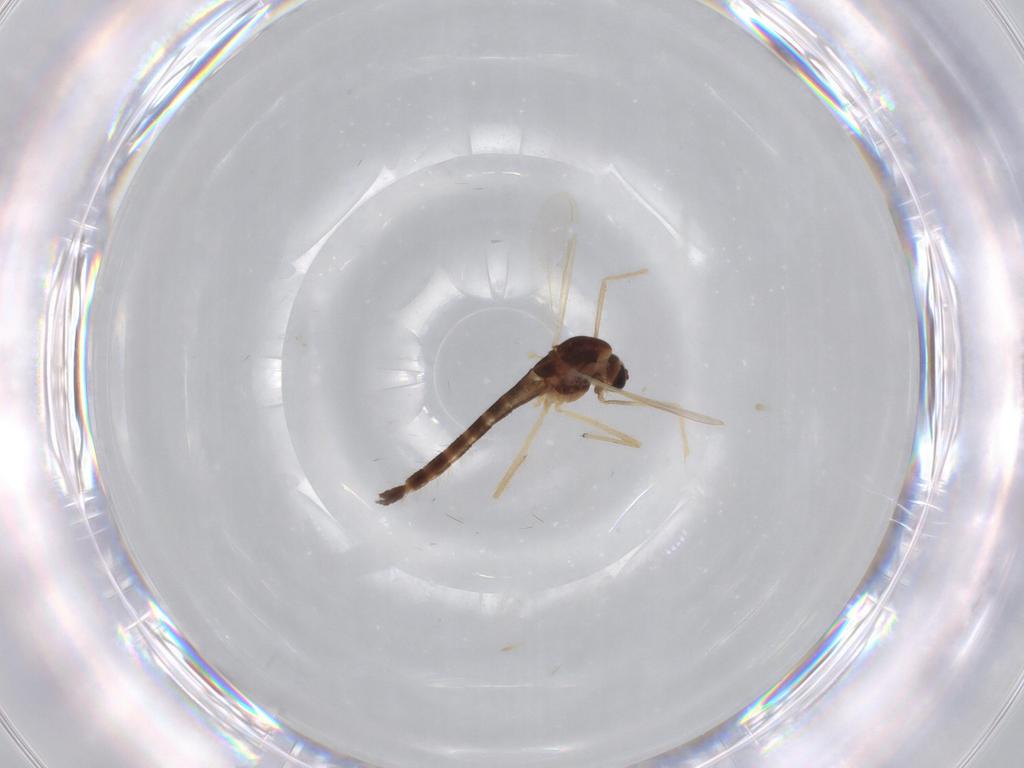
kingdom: Animalia
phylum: Arthropoda
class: Insecta
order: Diptera
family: Chironomidae
